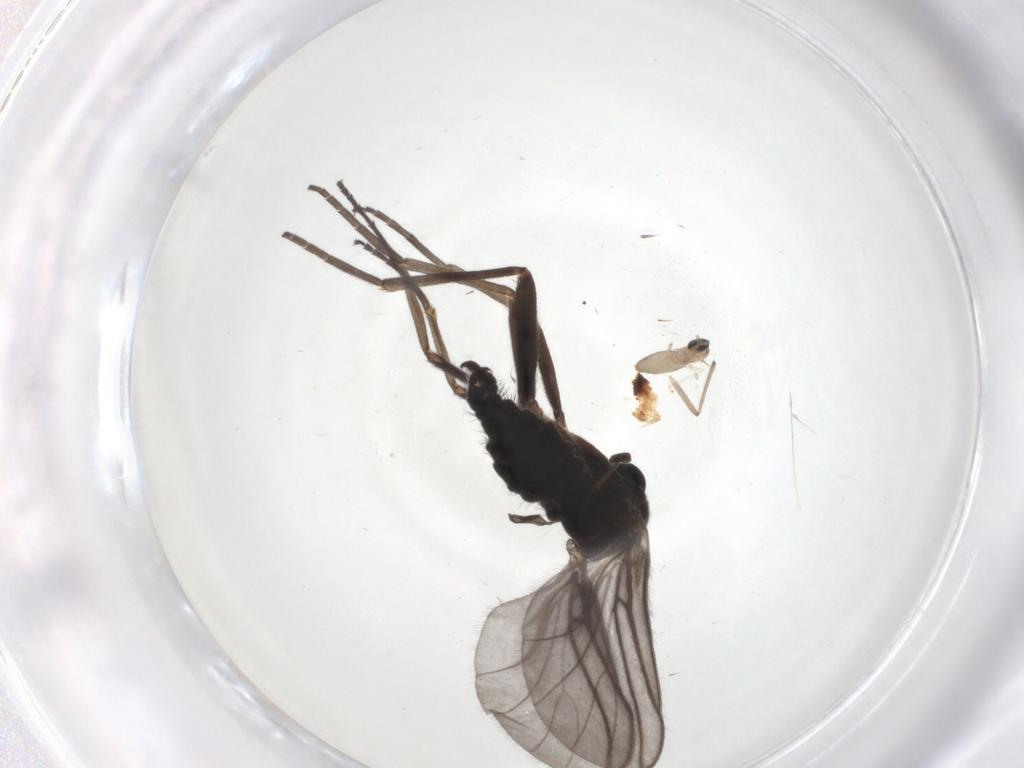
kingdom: Animalia
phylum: Arthropoda
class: Insecta
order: Diptera
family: Sciaridae
